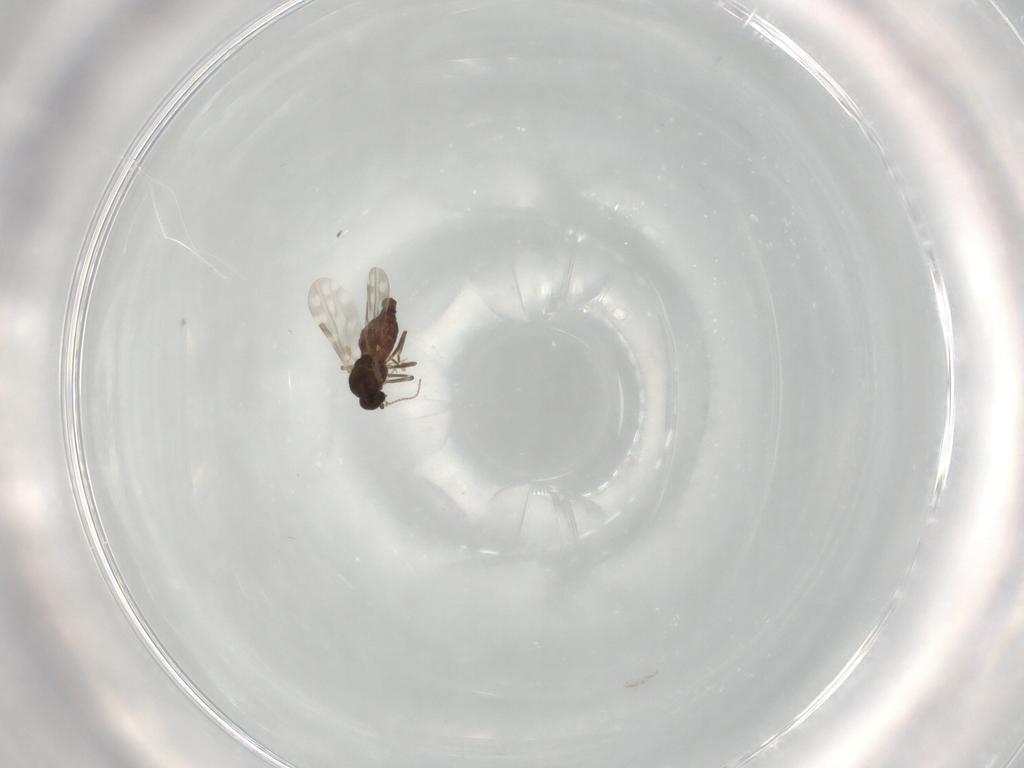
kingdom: Animalia
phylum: Arthropoda
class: Insecta
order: Diptera
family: Ceratopogonidae
